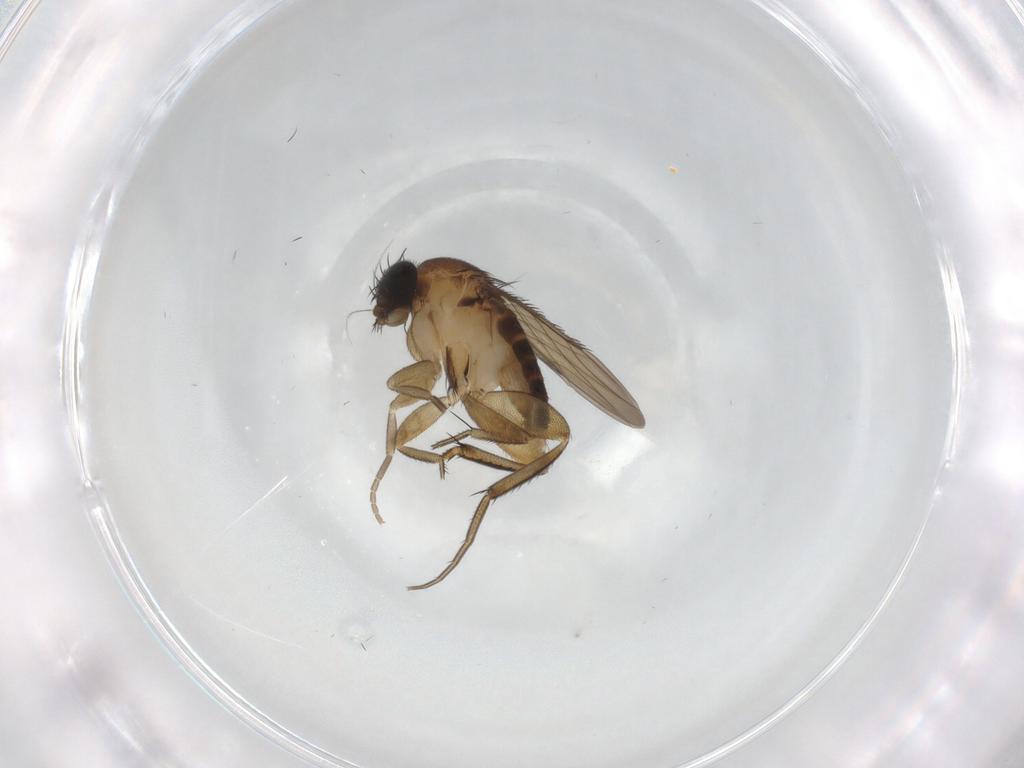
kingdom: Animalia
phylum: Arthropoda
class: Insecta
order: Diptera
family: Phoridae
